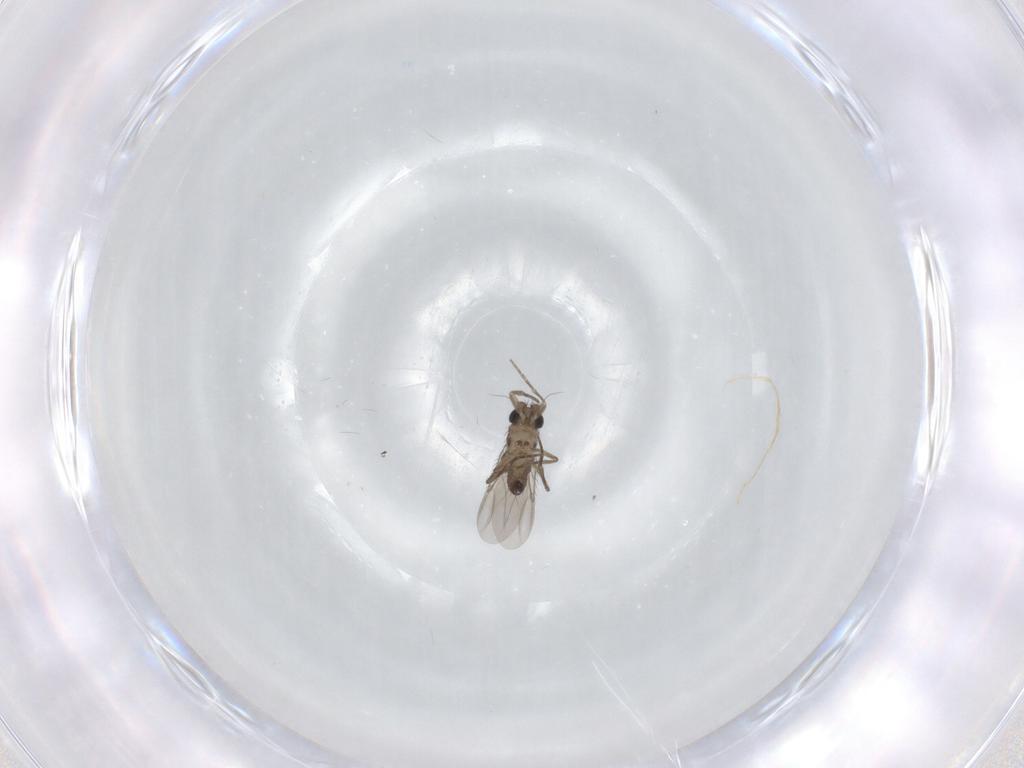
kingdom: Animalia
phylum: Arthropoda
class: Insecta
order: Diptera
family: Phoridae
